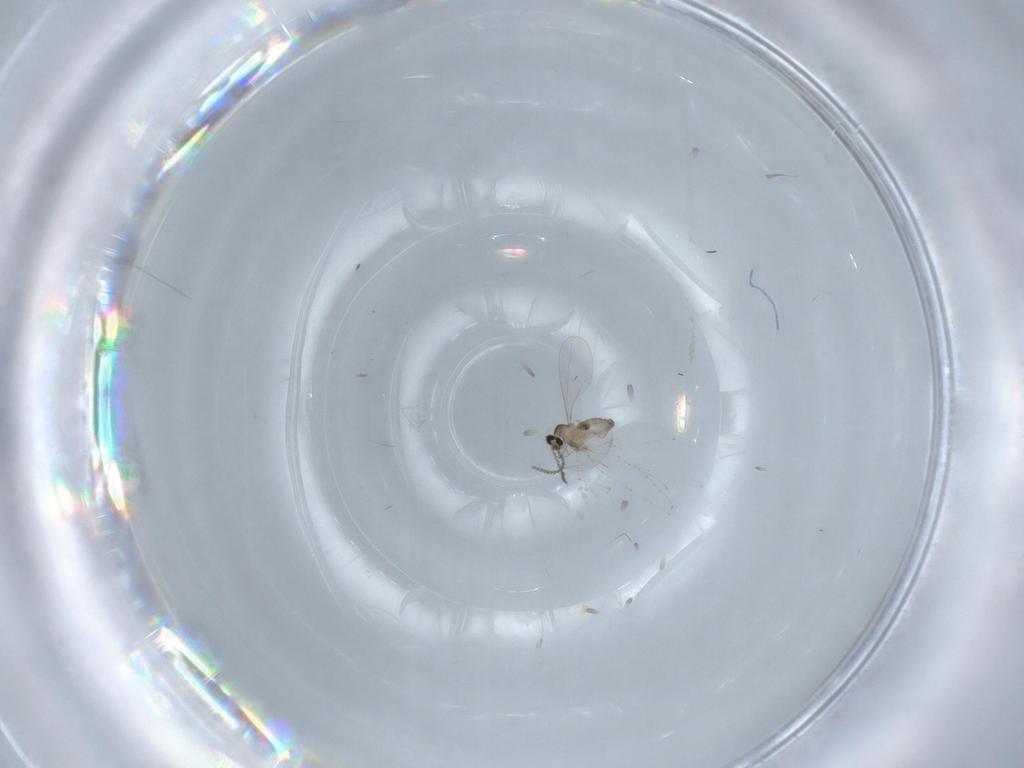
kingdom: Animalia
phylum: Arthropoda
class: Insecta
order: Diptera
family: Cecidomyiidae
